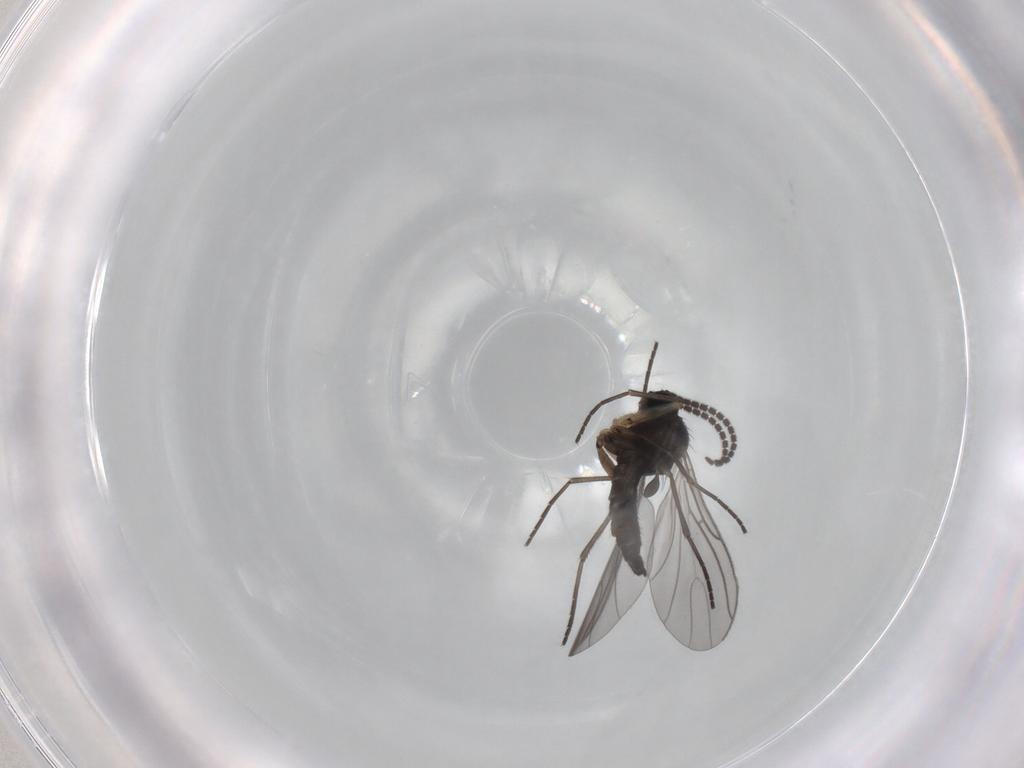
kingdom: Animalia
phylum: Arthropoda
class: Insecta
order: Diptera
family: Sciaridae
